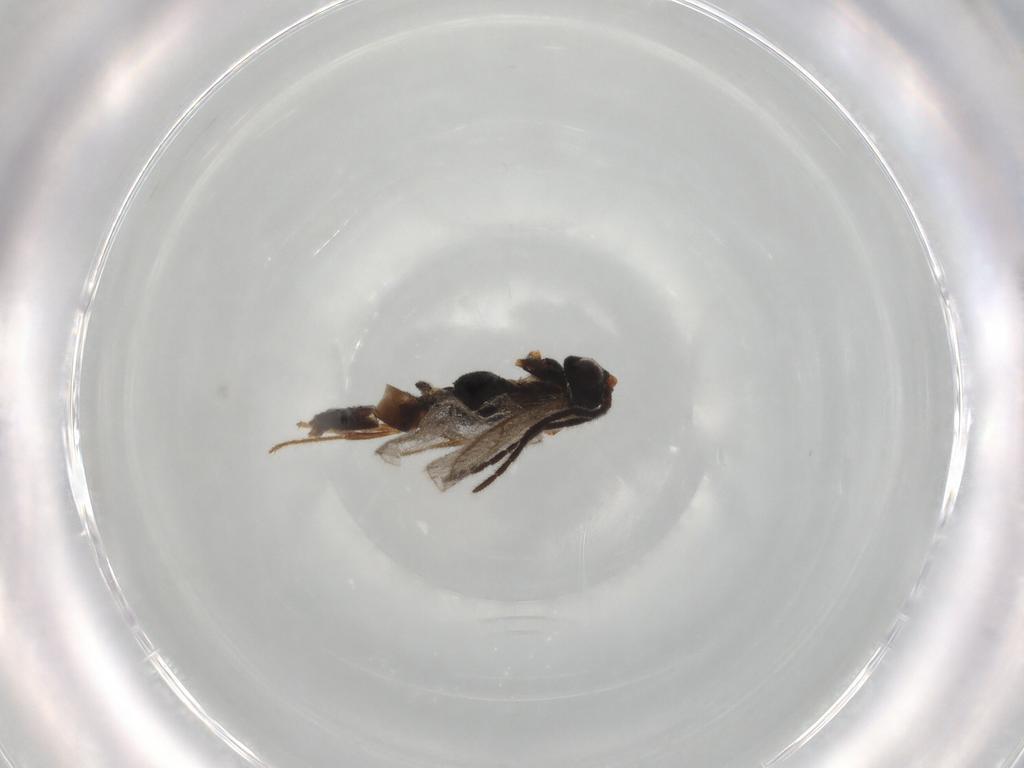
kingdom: Animalia
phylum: Arthropoda
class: Insecta
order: Hymenoptera
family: Dryinidae
